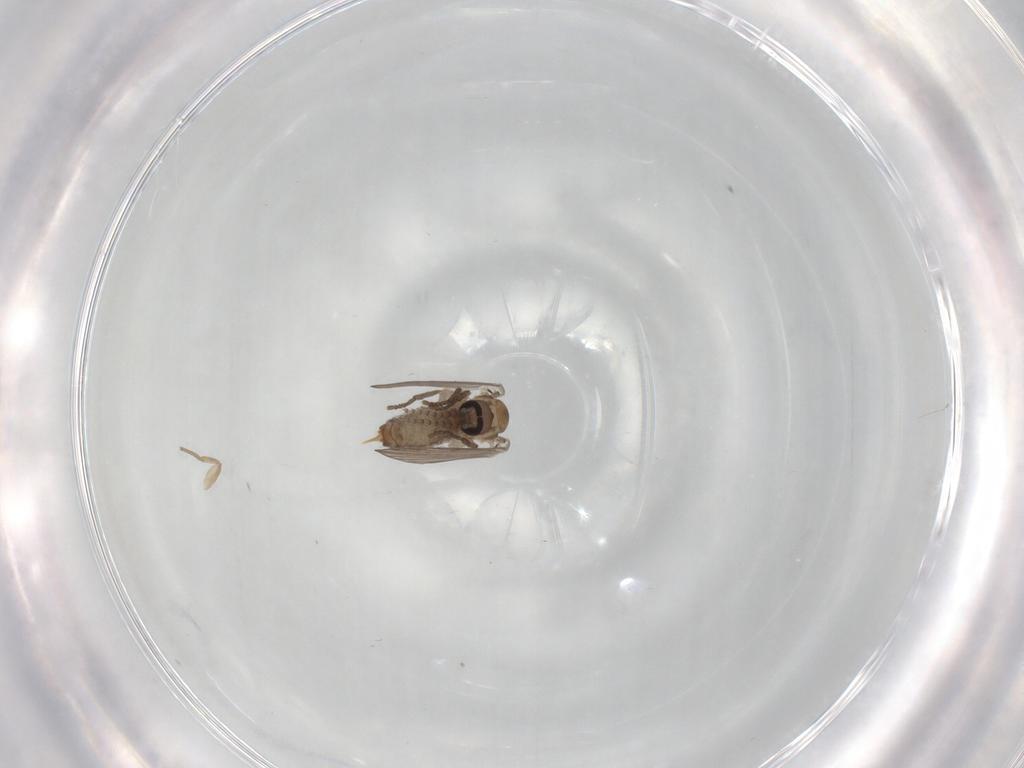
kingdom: Animalia
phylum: Arthropoda
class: Insecta
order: Diptera
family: Psychodidae
